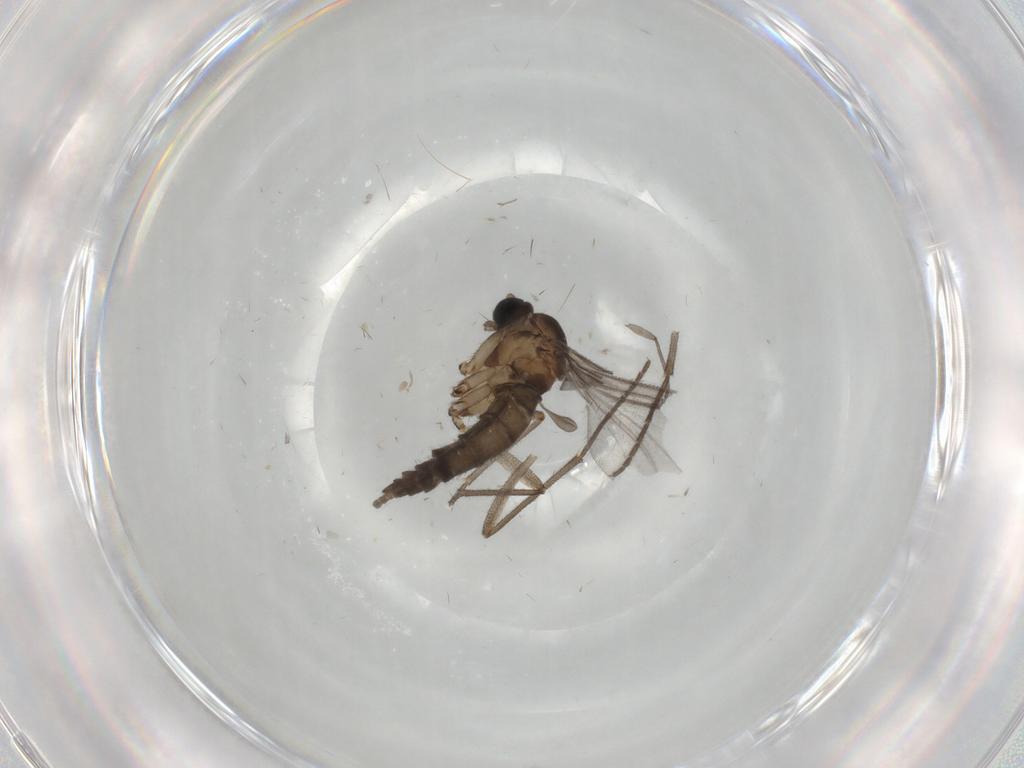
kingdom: Animalia
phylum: Arthropoda
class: Insecta
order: Diptera
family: Sciaridae
